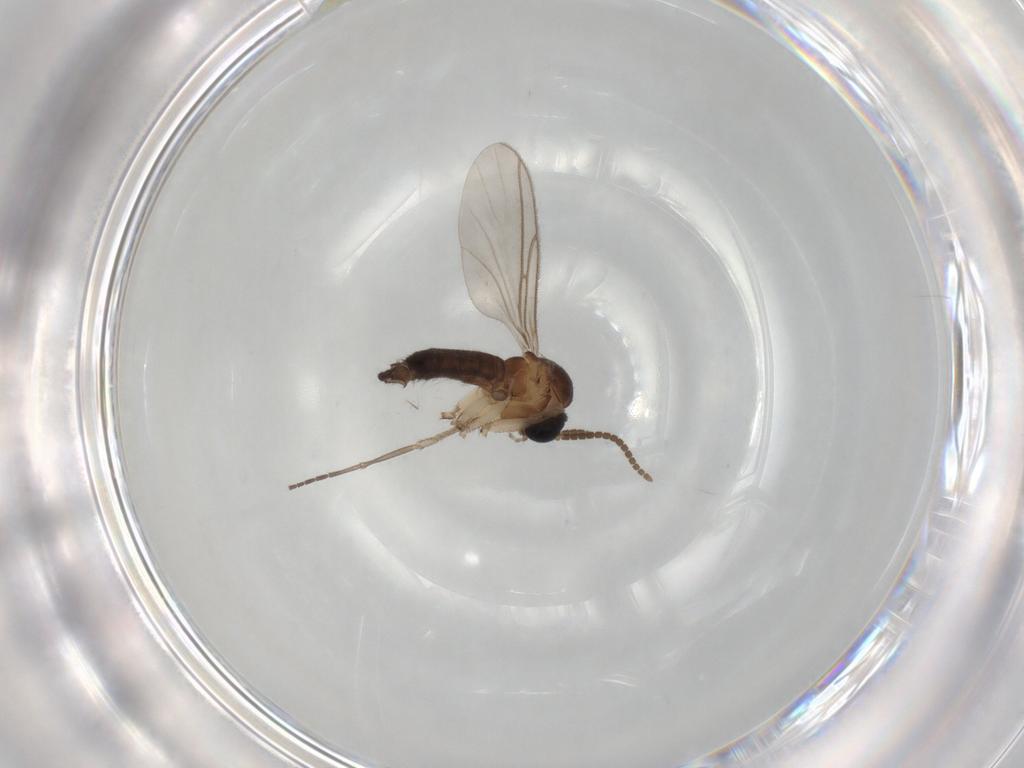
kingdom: Animalia
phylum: Arthropoda
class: Insecta
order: Diptera
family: Sciaridae
